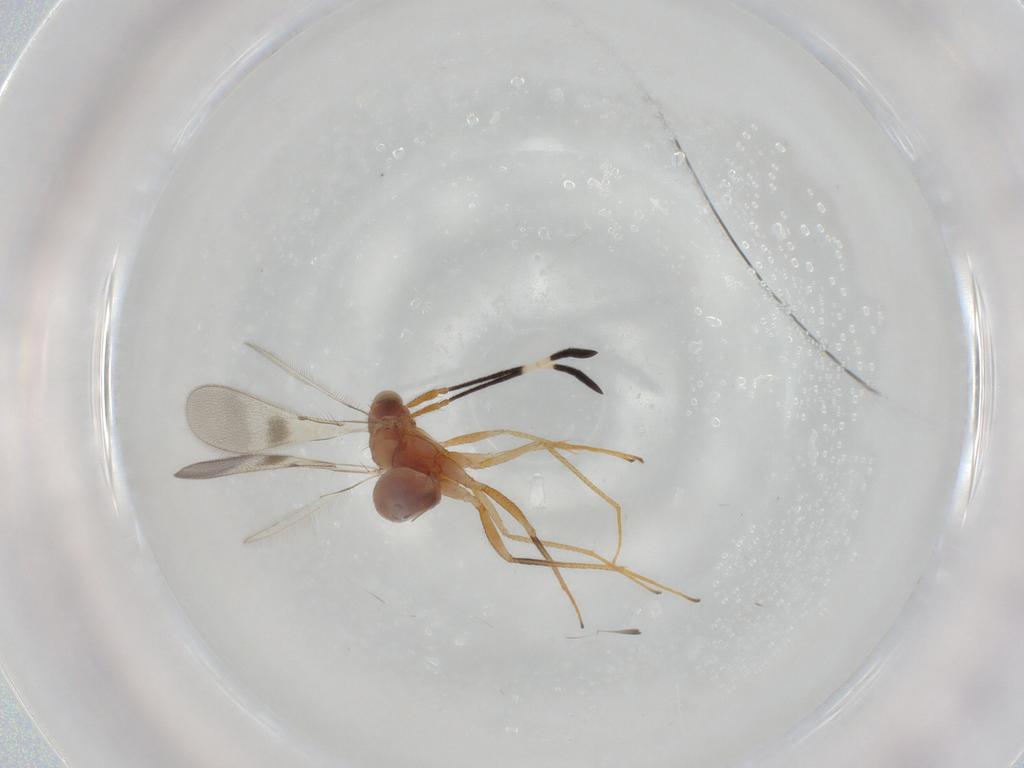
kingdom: Animalia
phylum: Arthropoda
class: Insecta
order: Hymenoptera
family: Mymaridae
